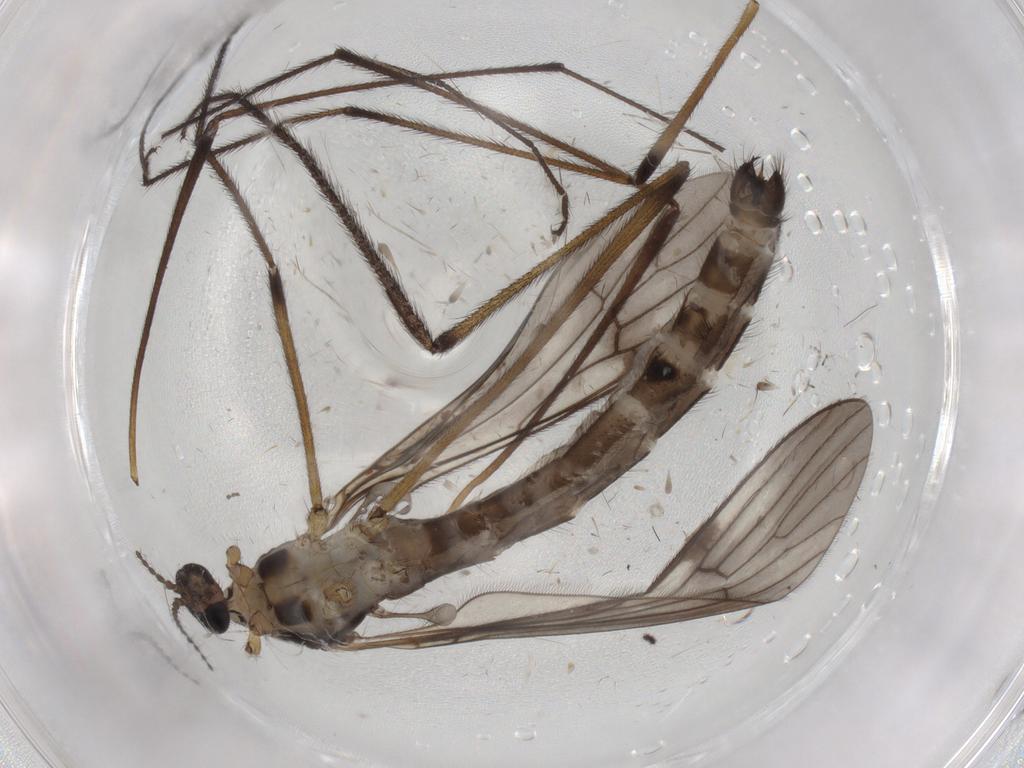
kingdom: Animalia
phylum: Arthropoda
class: Insecta
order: Diptera
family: Limoniidae
